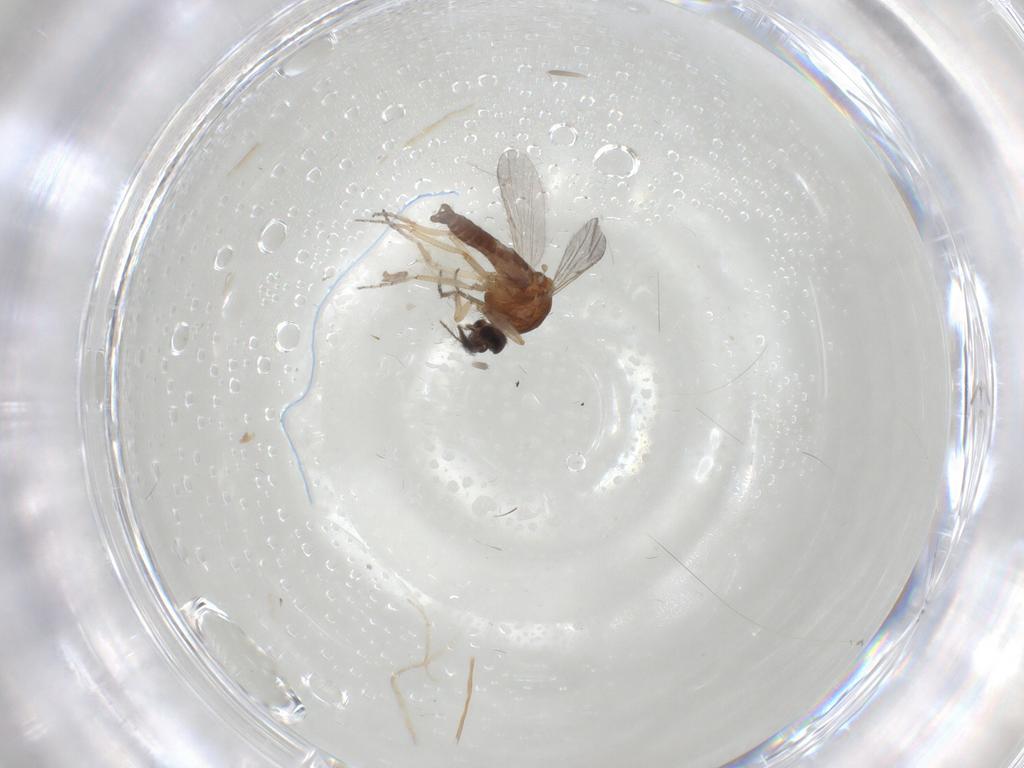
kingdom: Animalia
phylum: Arthropoda
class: Insecta
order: Diptera
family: Ceratopogonidae
